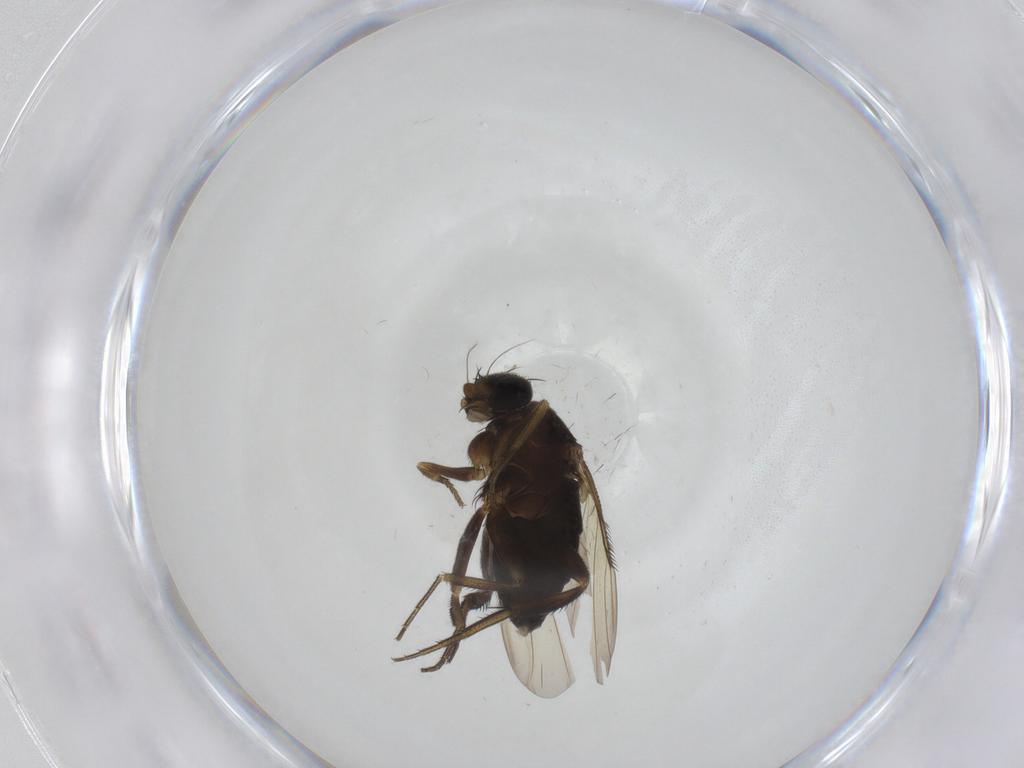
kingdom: Animalia
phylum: Arthropoda
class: Insecta
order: Diptera
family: Phoridae
